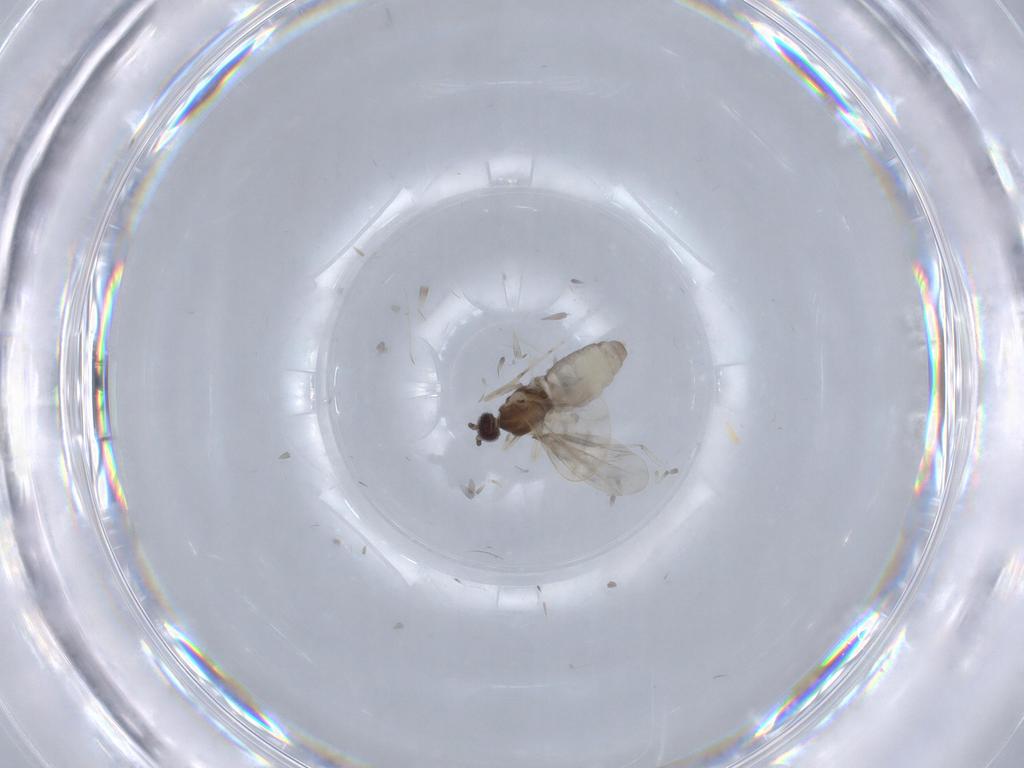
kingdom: Animalia
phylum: Arthropoda
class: Insecta
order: Diptera
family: Cecidomyiidae
